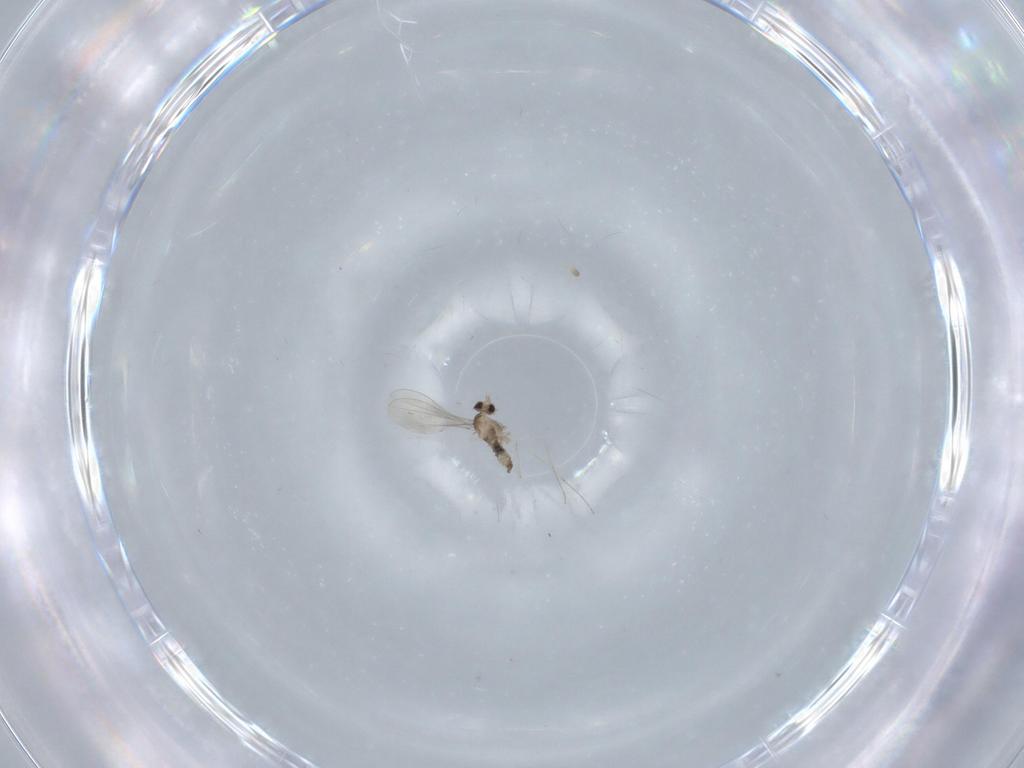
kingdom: Animalia
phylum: Arthropoda
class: Insecta
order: Diptera
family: Cecidomyiidae
